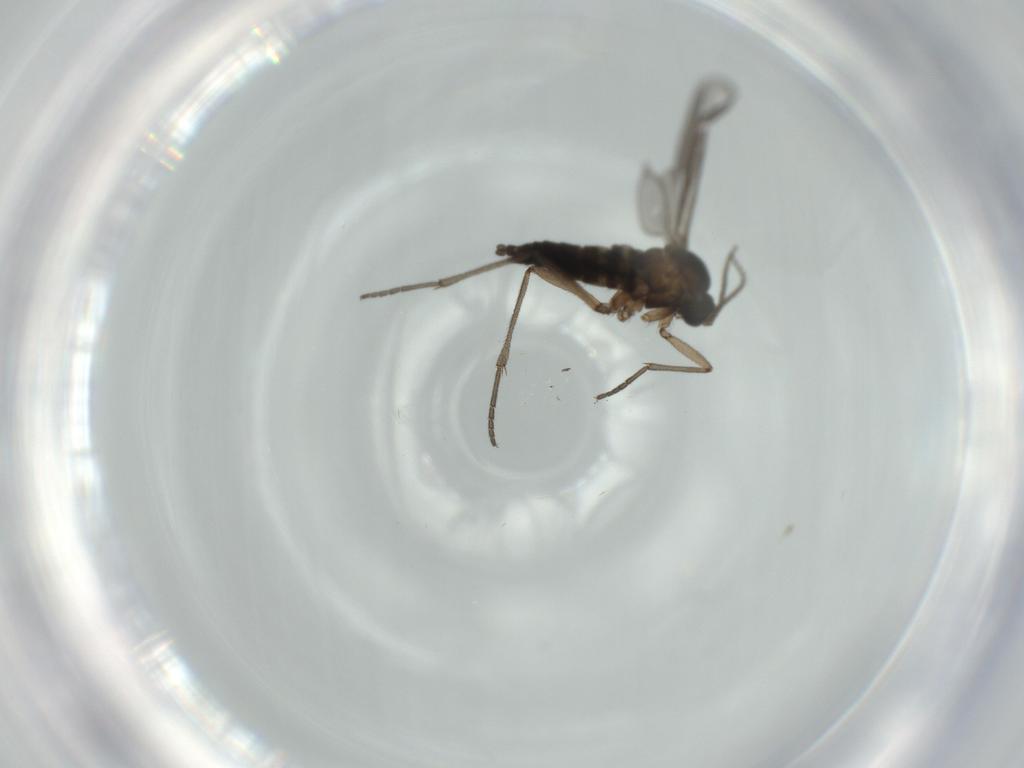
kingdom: Animalia
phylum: Arthropoda
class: Insecta
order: Diptera
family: Sciaridae
